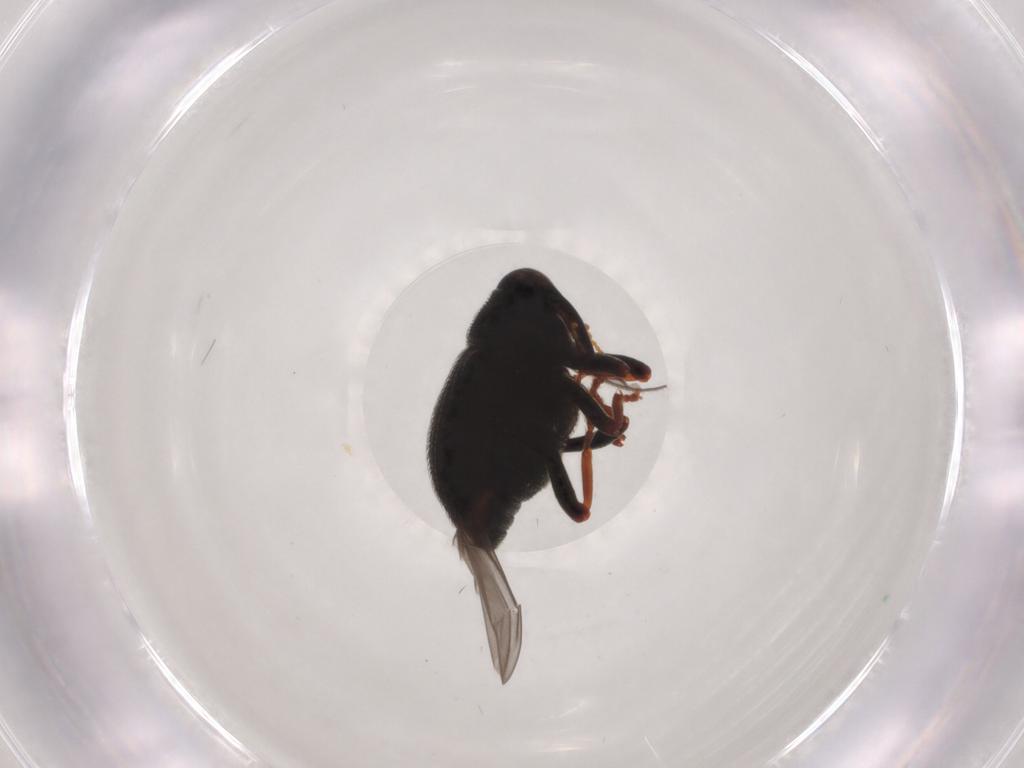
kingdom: Animalia
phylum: Arthropoda
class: Insecta
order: Coleoptera
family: Curculionidae
